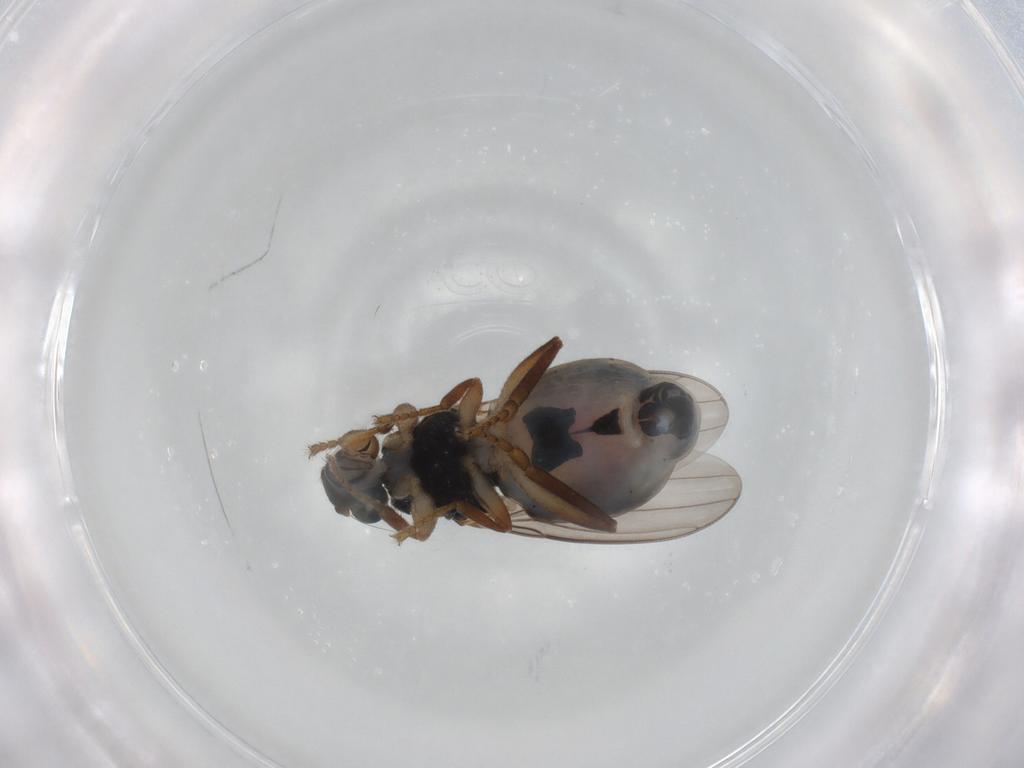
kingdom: Animalia
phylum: Arthropoda
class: Insecta
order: Diptera
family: Sphaeroceridae
